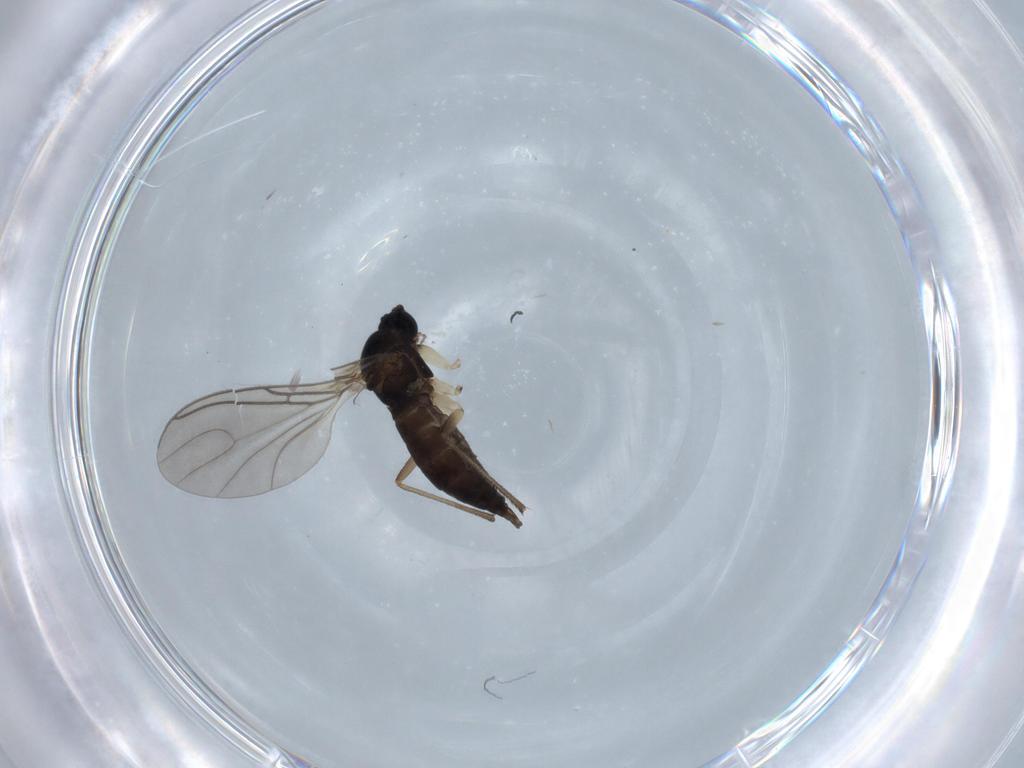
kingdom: Animalia
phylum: Arthropoda
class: Insecta
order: Diptera
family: Sciaridae
